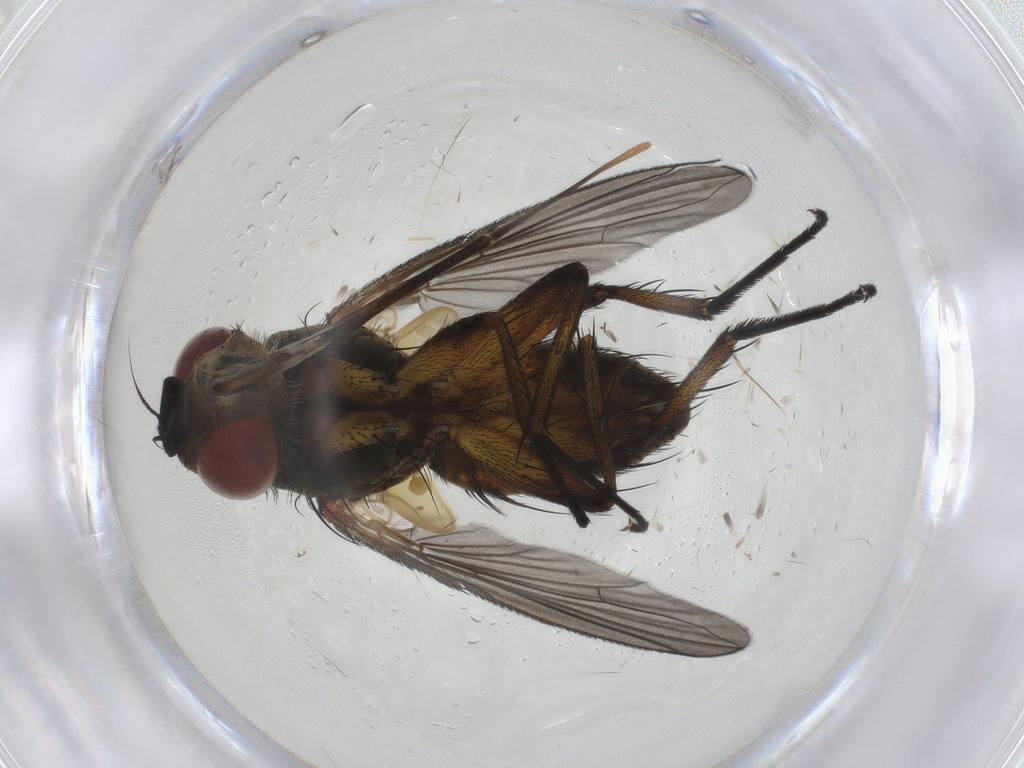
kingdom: Animalia
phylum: Arthropoda
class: Insecta
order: Diptera
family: Tachinidae
